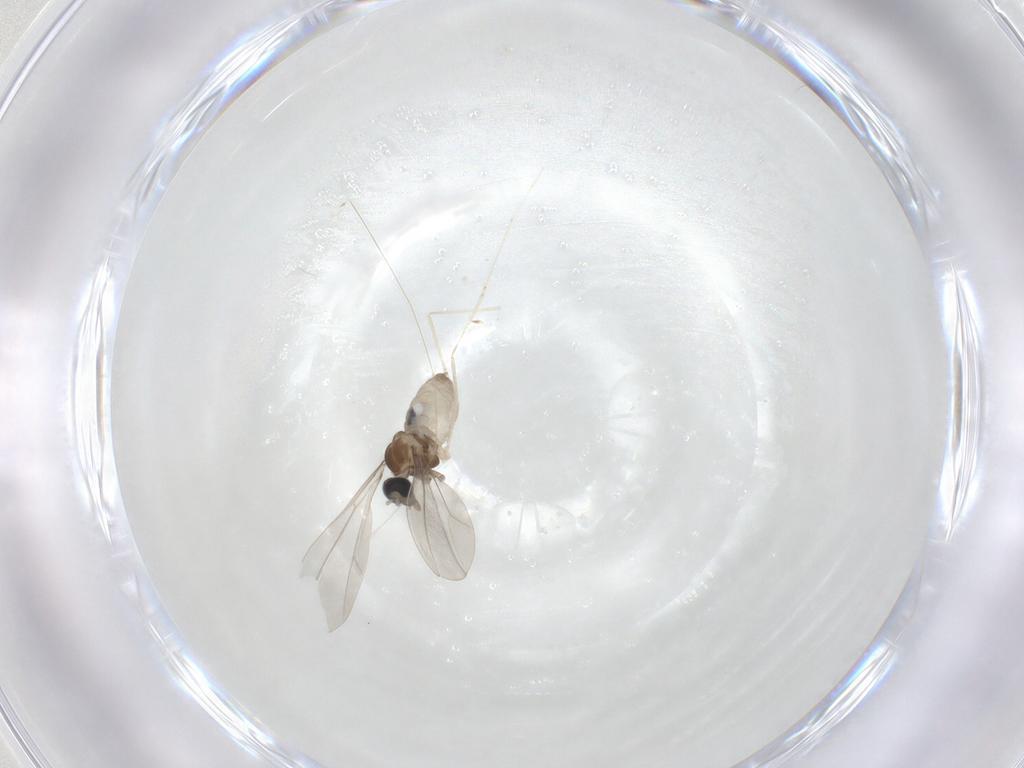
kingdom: Animalia
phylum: Arthropoda
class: Insecta
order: Diptera
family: Cecidomyiidae
